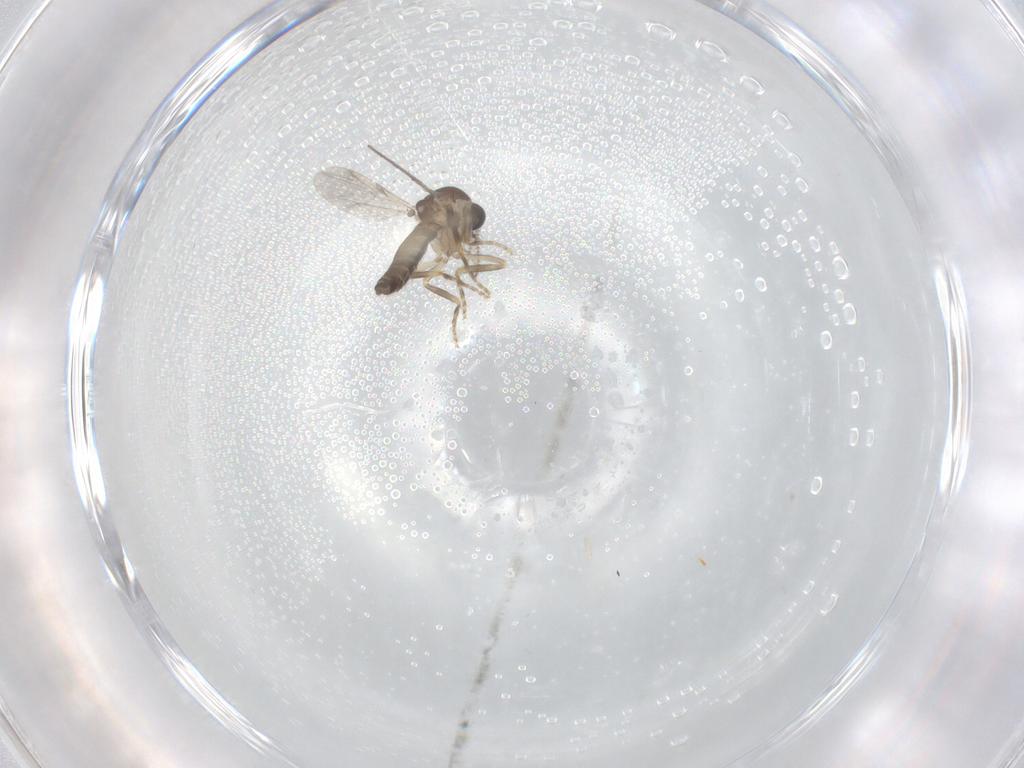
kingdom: Animalia
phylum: Arthropoda
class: Insecta
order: Diptera
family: Ceratopogonidae
